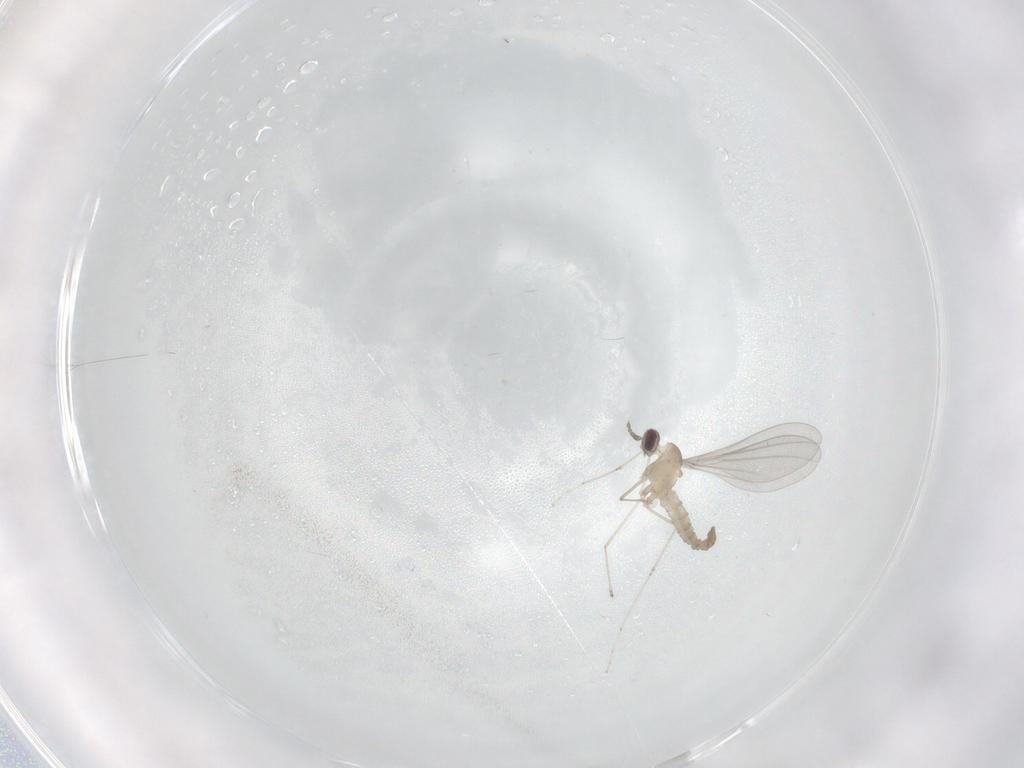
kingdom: Animalia
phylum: Arthropoda
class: Insecta
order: Diptera
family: Cecidomyiidae
